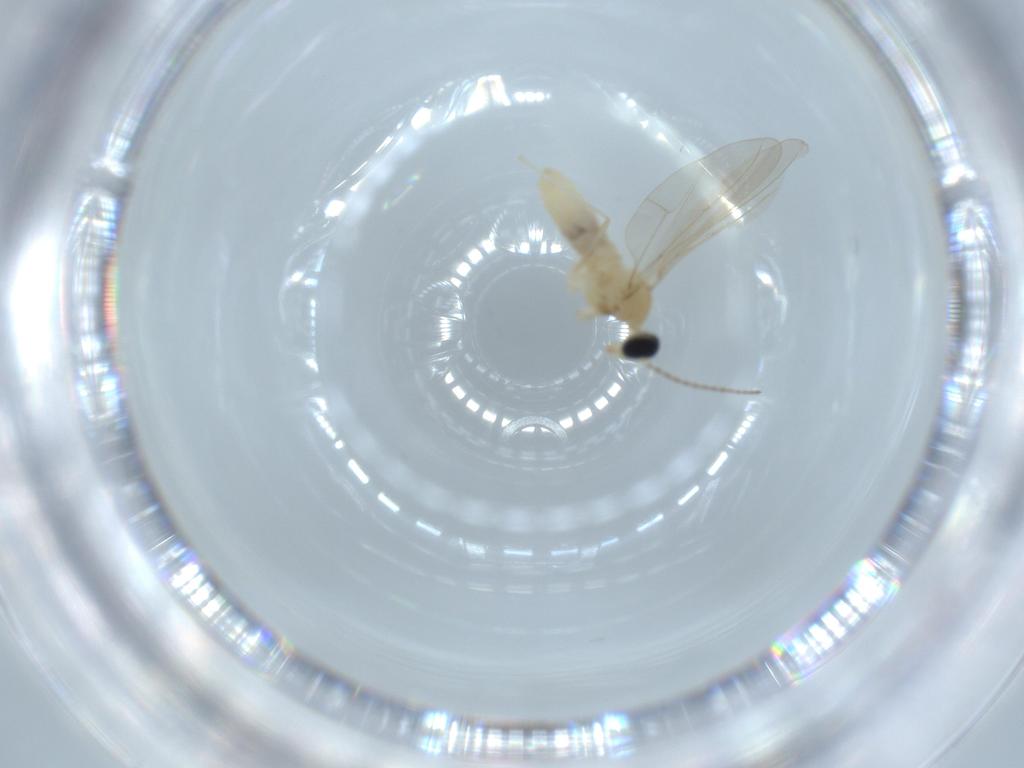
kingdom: Animalia
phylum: Arthropoda
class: Insecta
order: Diptera
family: Cecidomyiidae
